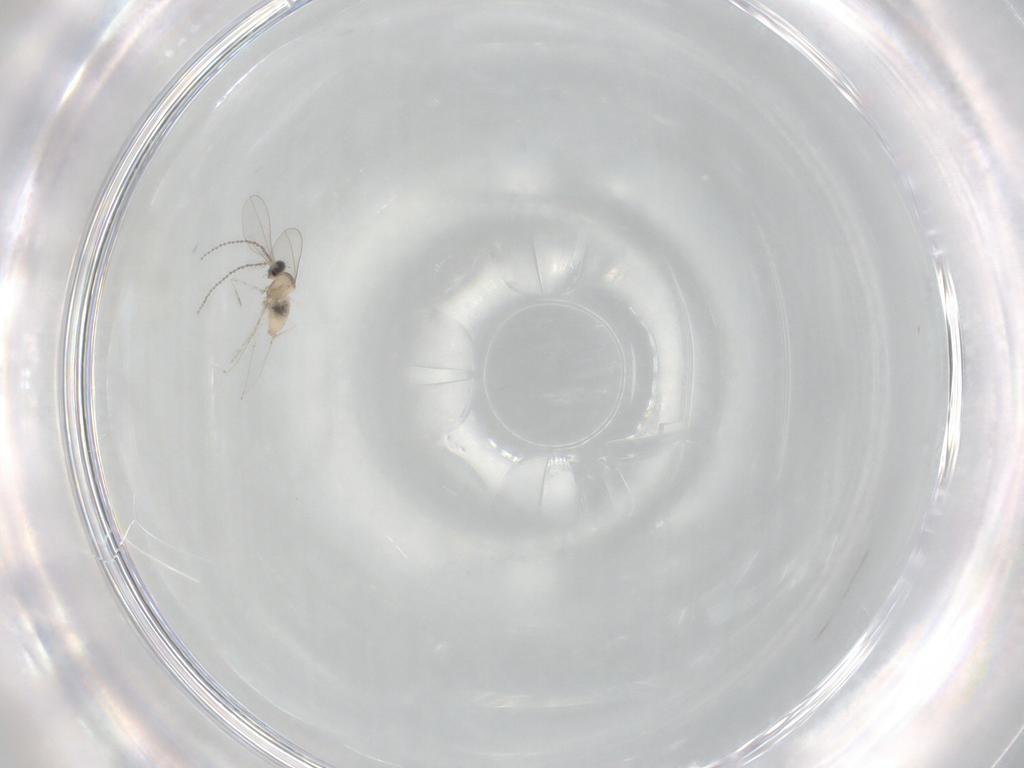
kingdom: Animalia
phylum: Arthropoda
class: Insecta
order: Diptera
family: Cecidomyiidae
